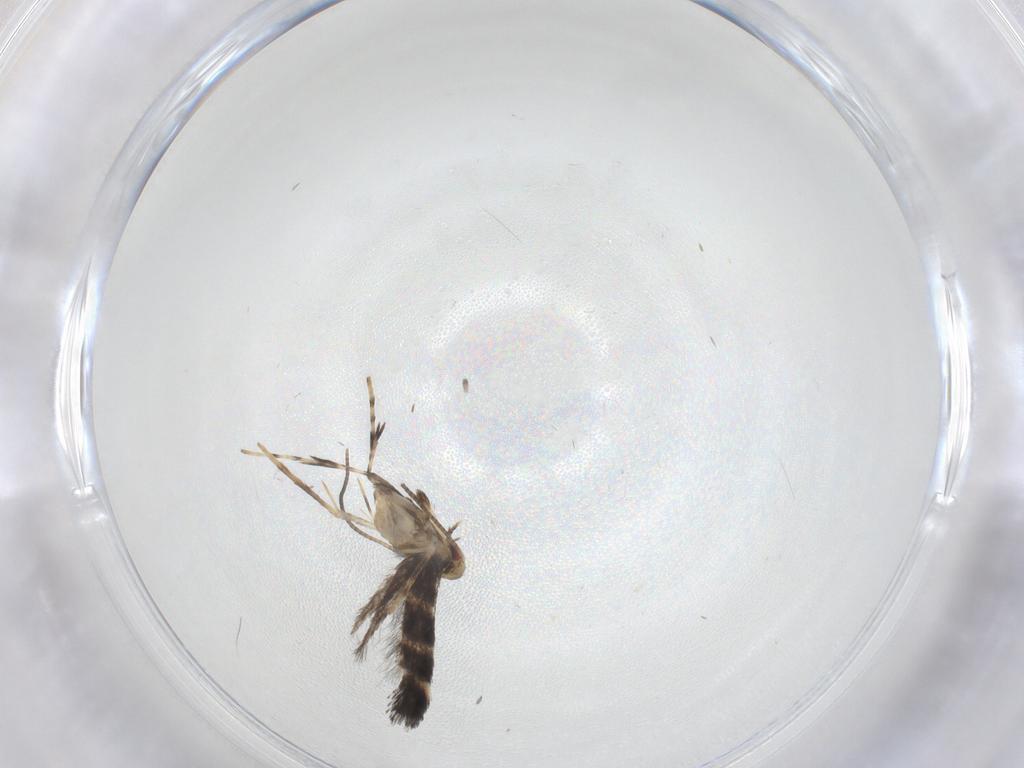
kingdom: Animalia
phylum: Arthropoda
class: Insecta
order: Lepidoptera
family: Gracillariidae
